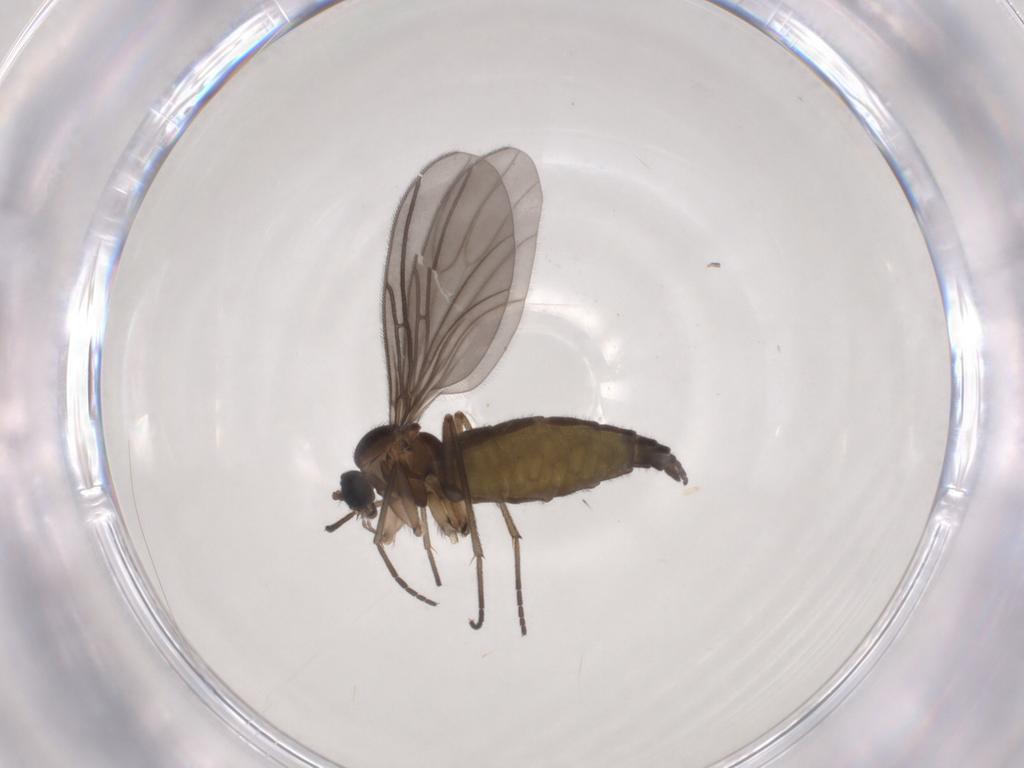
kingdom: Animalia
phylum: Arthropoda
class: Insecta
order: Diptera
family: Sciaridae
